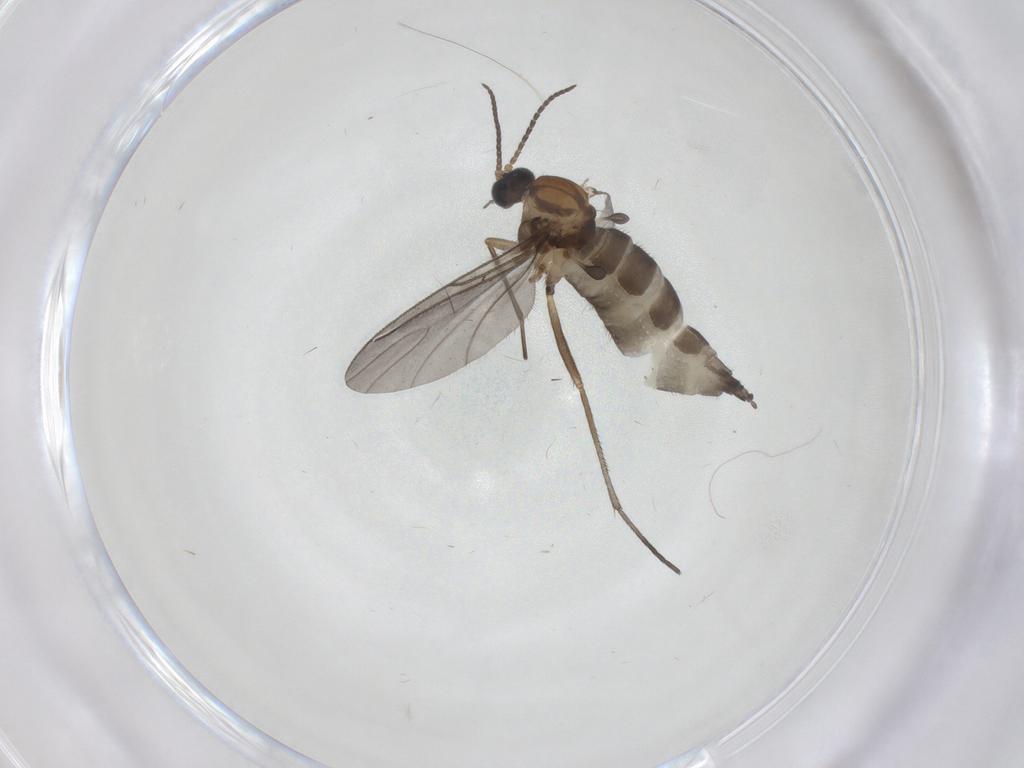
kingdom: Animalia
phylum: Arthropoda
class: Insecta
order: Diptera
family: Sciaridae
